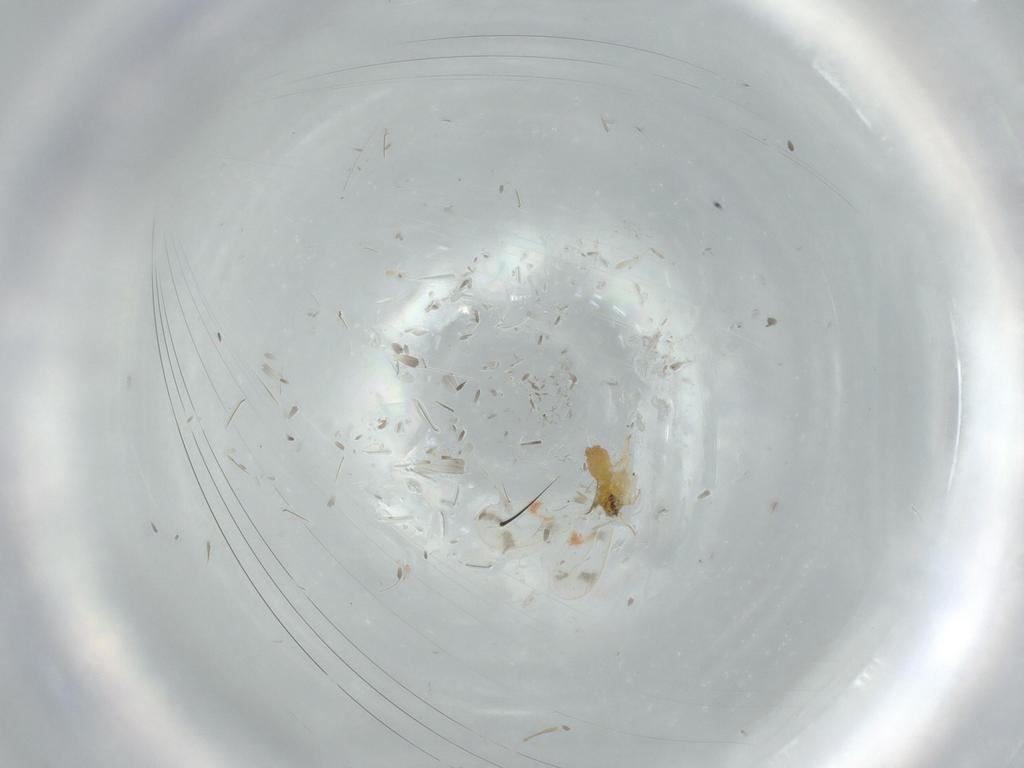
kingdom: Animalia
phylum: Arthropoda
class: Insecta
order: Hemiptera
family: Aleyrodidae
